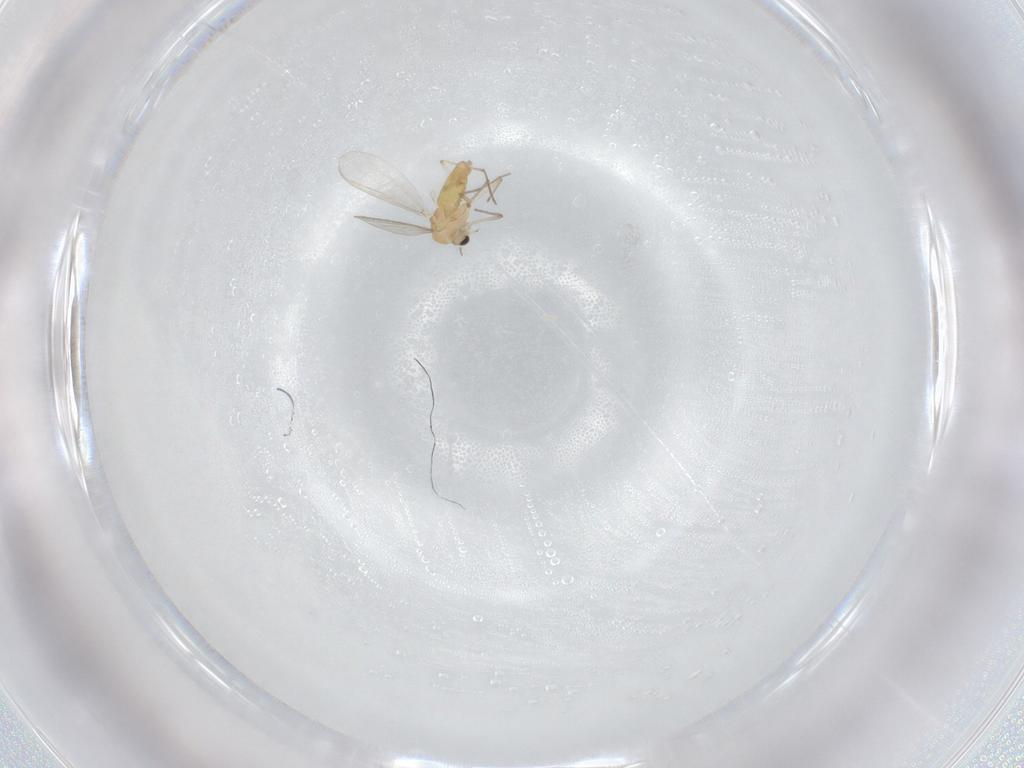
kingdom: Animalia
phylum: Arthropoda
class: Insecta
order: Diptera
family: Chironomidae
